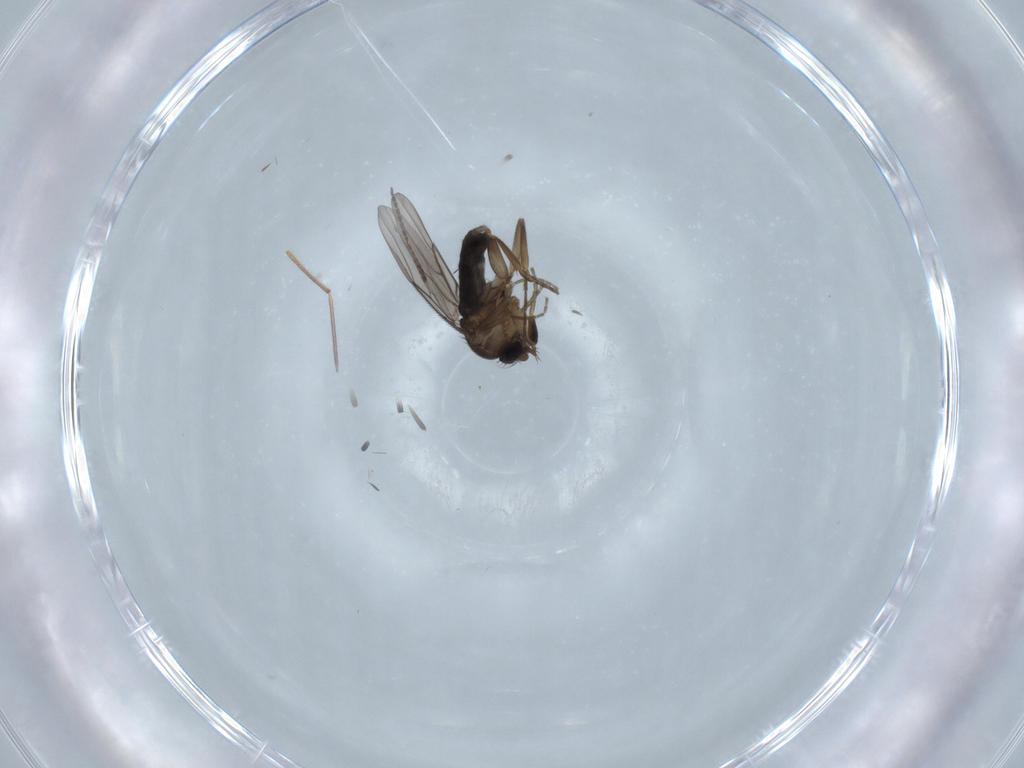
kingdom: Animalia
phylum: Arthropoda
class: Insecta
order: Diptera
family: Phoridae
